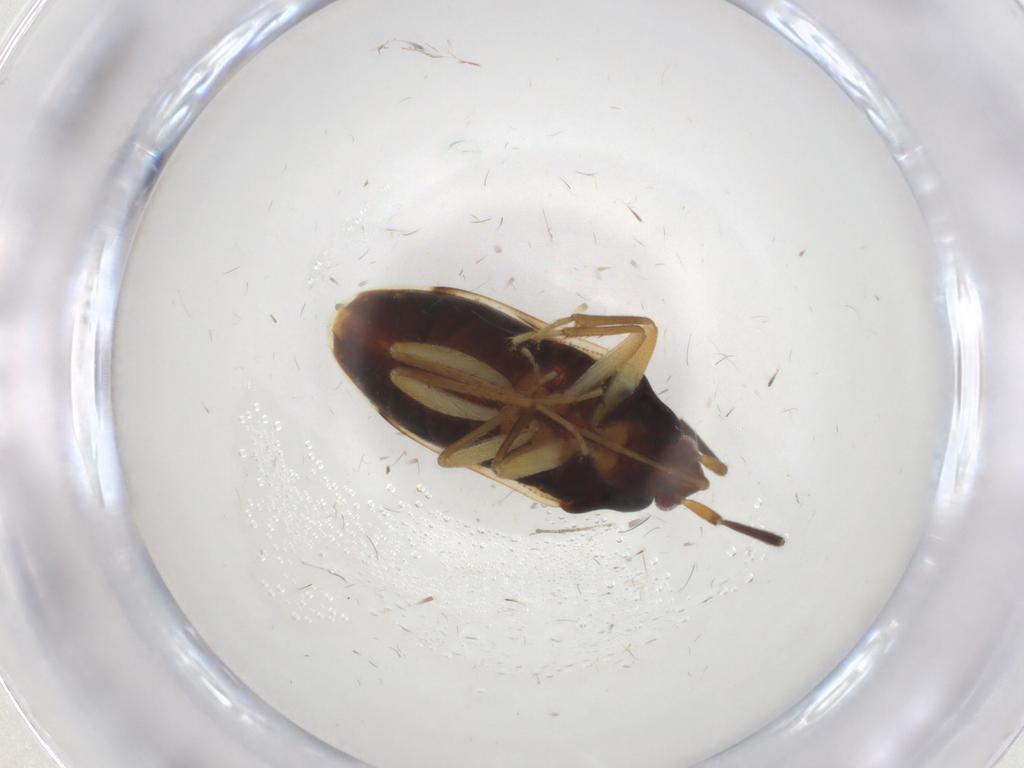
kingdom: Animalia
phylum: Arthropoda
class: Insecta
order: Hemiptera
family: Rhyparochromidae
